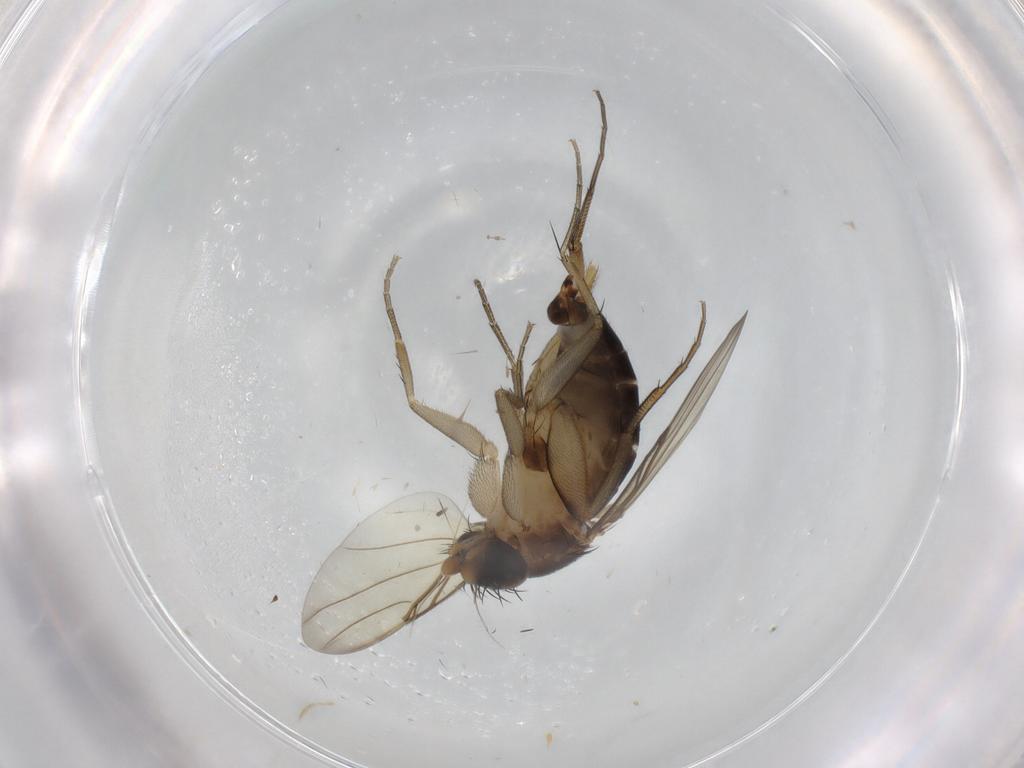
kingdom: Animalia
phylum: Arthropoda
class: Insecta
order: Diptera
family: Phoridae
